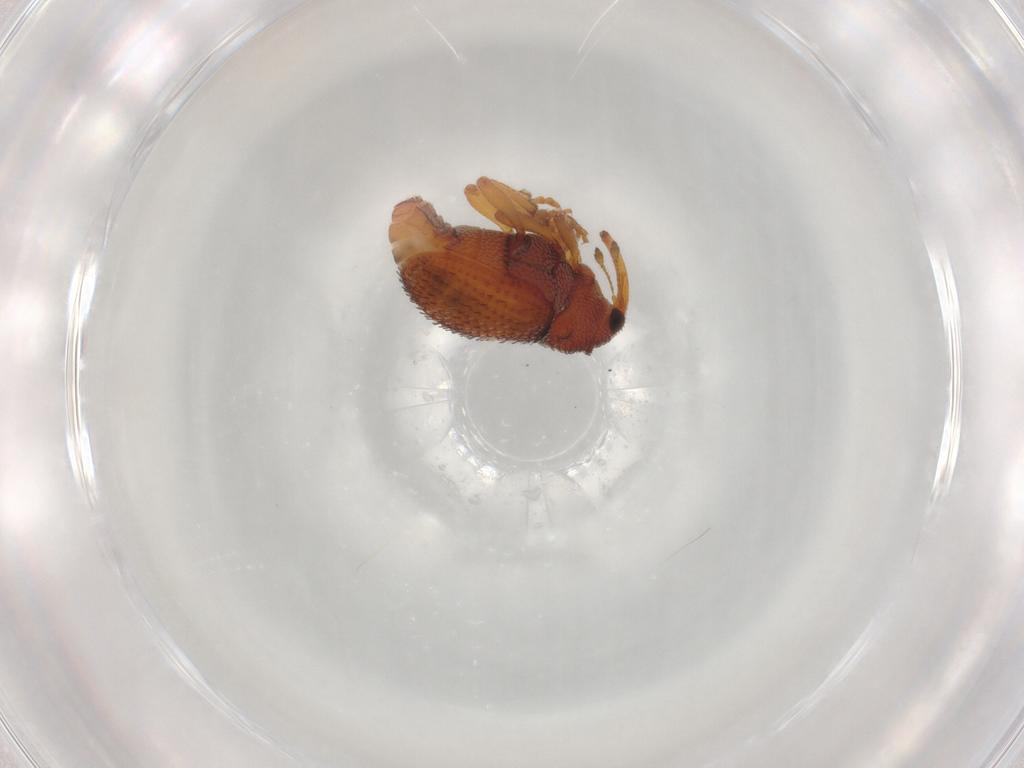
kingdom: Animalia
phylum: Arthropoda
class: Insecta
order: Coleoptera
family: Curculionidae
